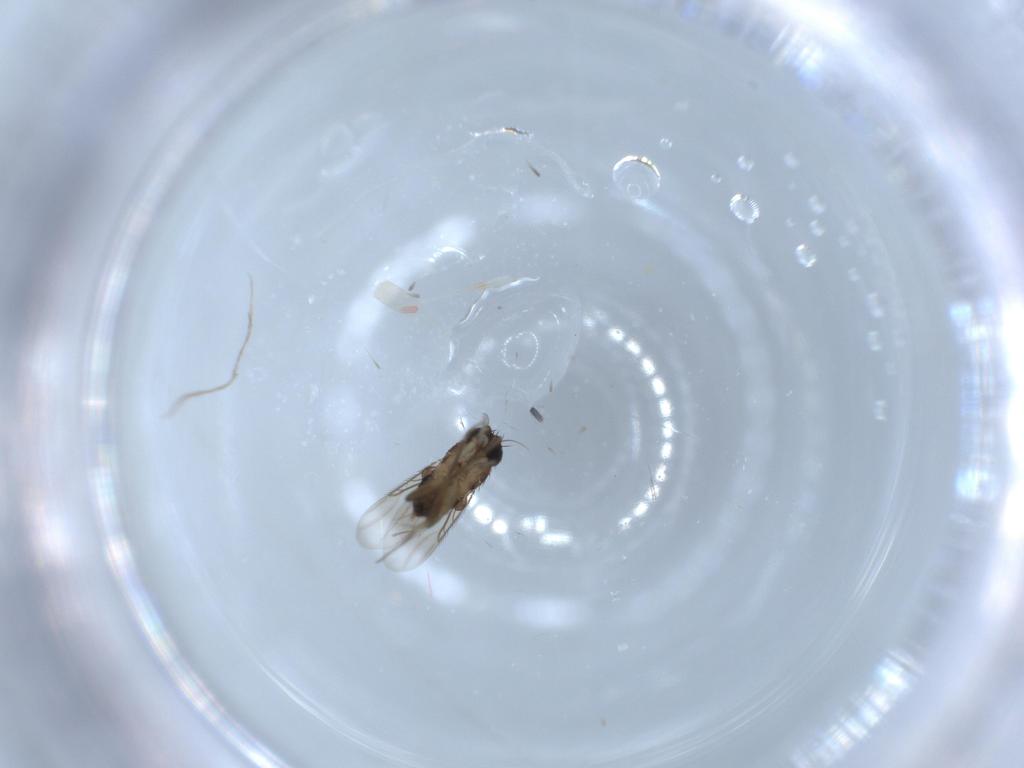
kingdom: Animalia
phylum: Arthropoda
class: Insecta
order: Diptera
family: Phoridae
